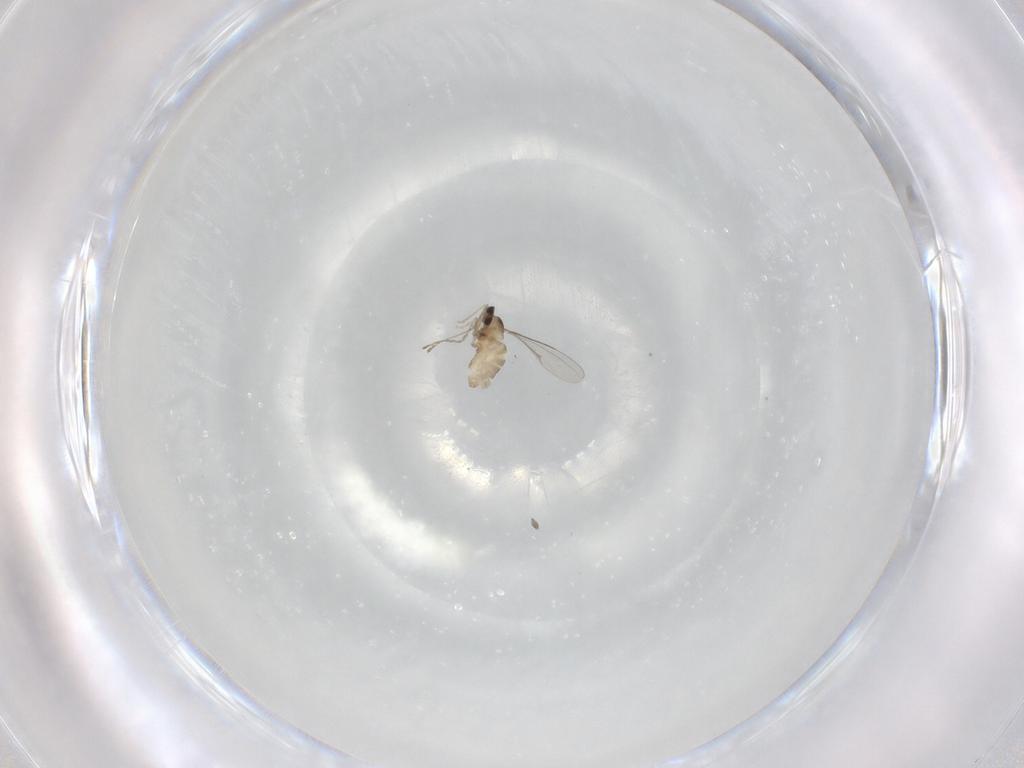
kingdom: Animalia
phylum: Arthropoda
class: Insecta
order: Diptera
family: Cecidomyiidae
